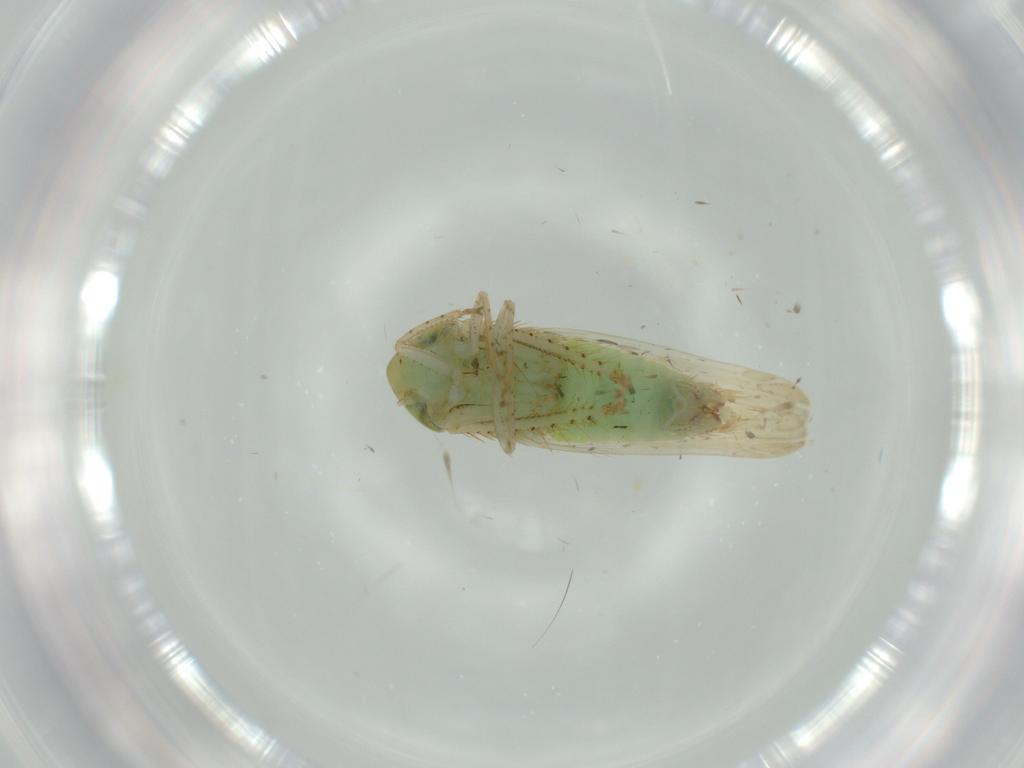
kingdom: Animalia
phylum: Arthropoda
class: Insecta
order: Hemiptera
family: Cicadellidae
